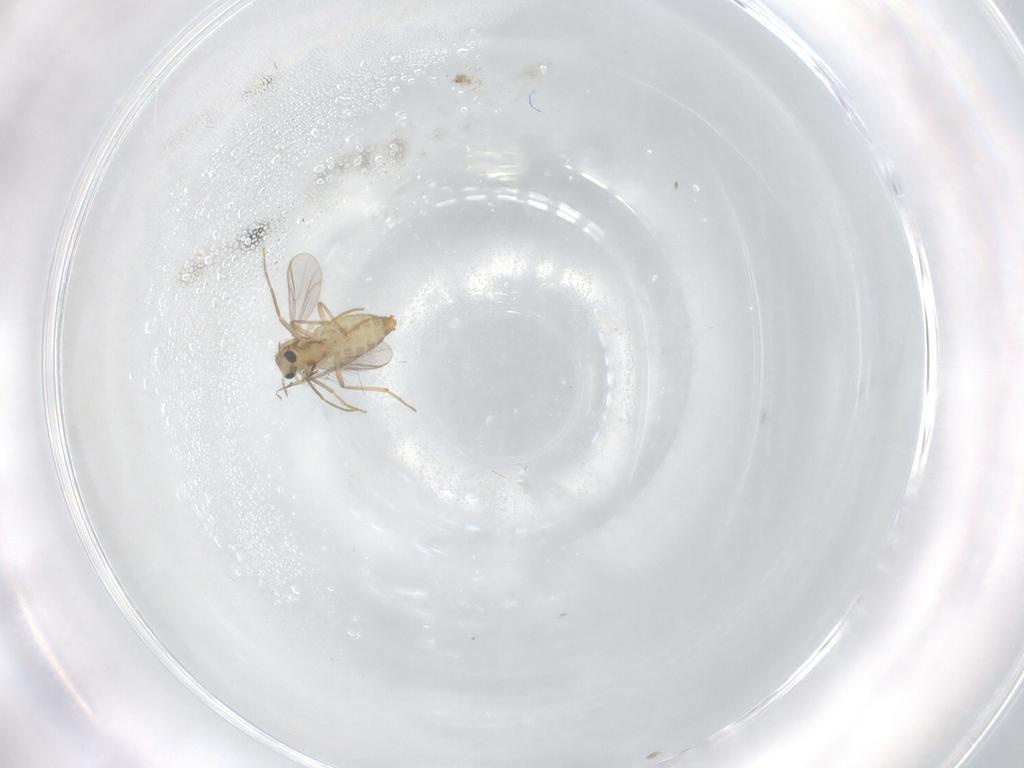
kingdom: Animalia
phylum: Arthropoda
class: Insecta
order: Diptera
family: Chironomidae
